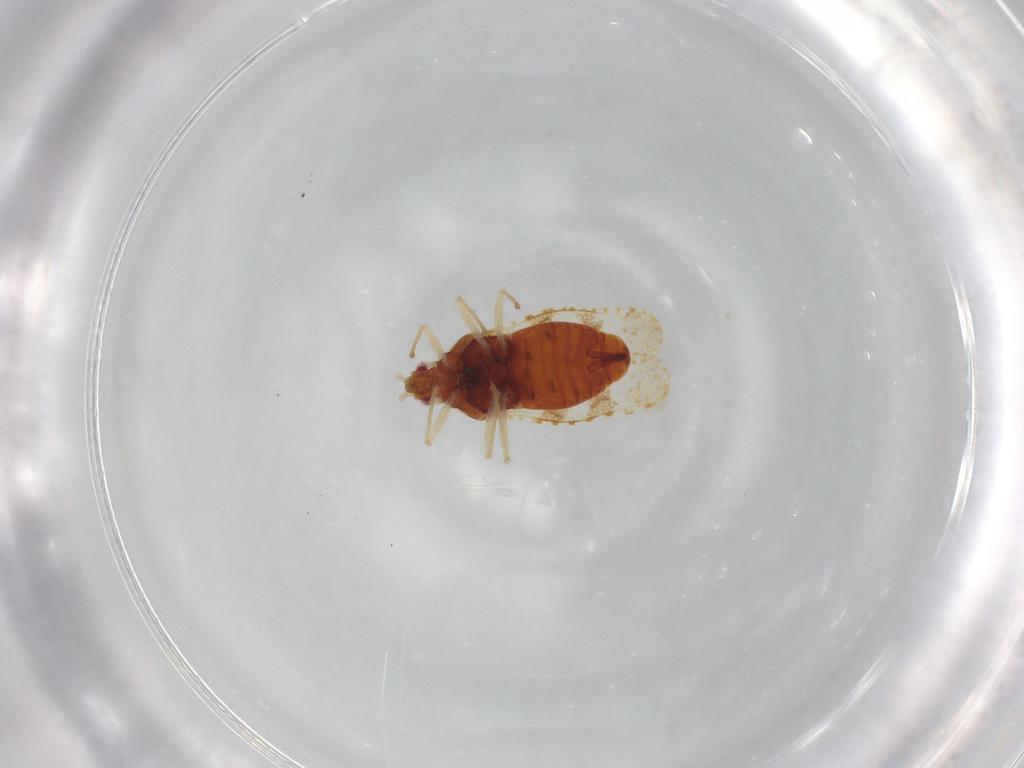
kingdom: Animalia
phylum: Arthropoda
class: Insecta
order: Hemiptera
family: Tingidae
